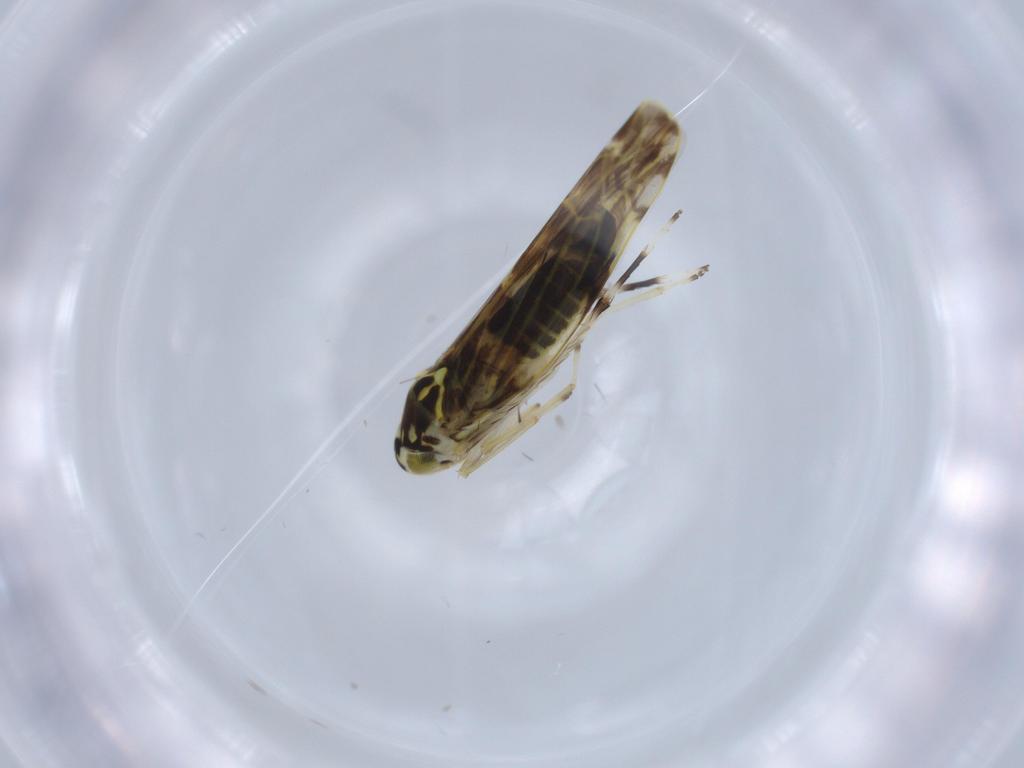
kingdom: Animalia
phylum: Arthropoda
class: Insecta
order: Hemiptera
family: Cicadellidae
